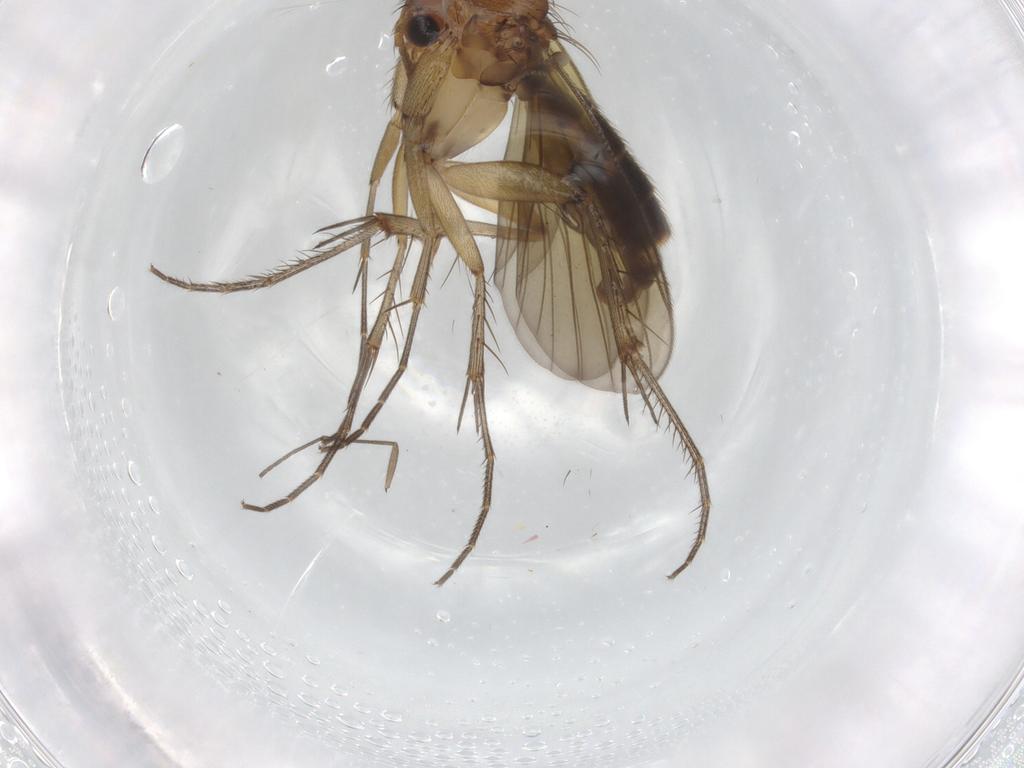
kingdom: Animalia
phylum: Arthropoda
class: Insecta
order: Diptera
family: Mycetophilidae
